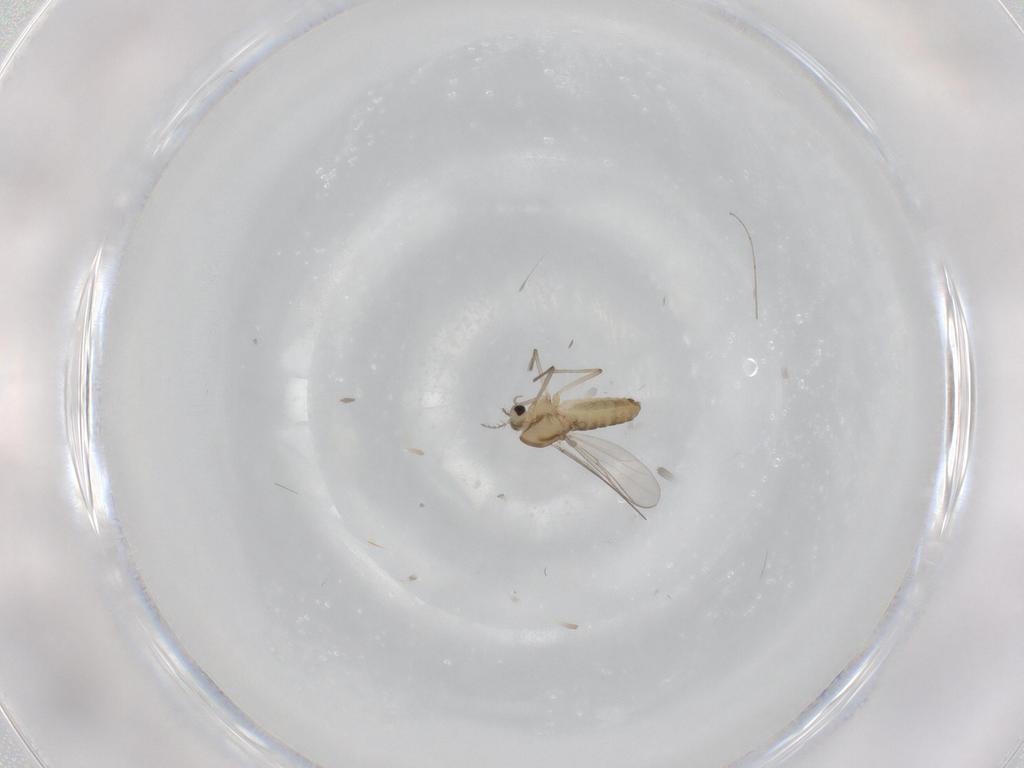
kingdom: Animalia
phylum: Arthropoda
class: Insecta
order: Diptera
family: Chironomidae
